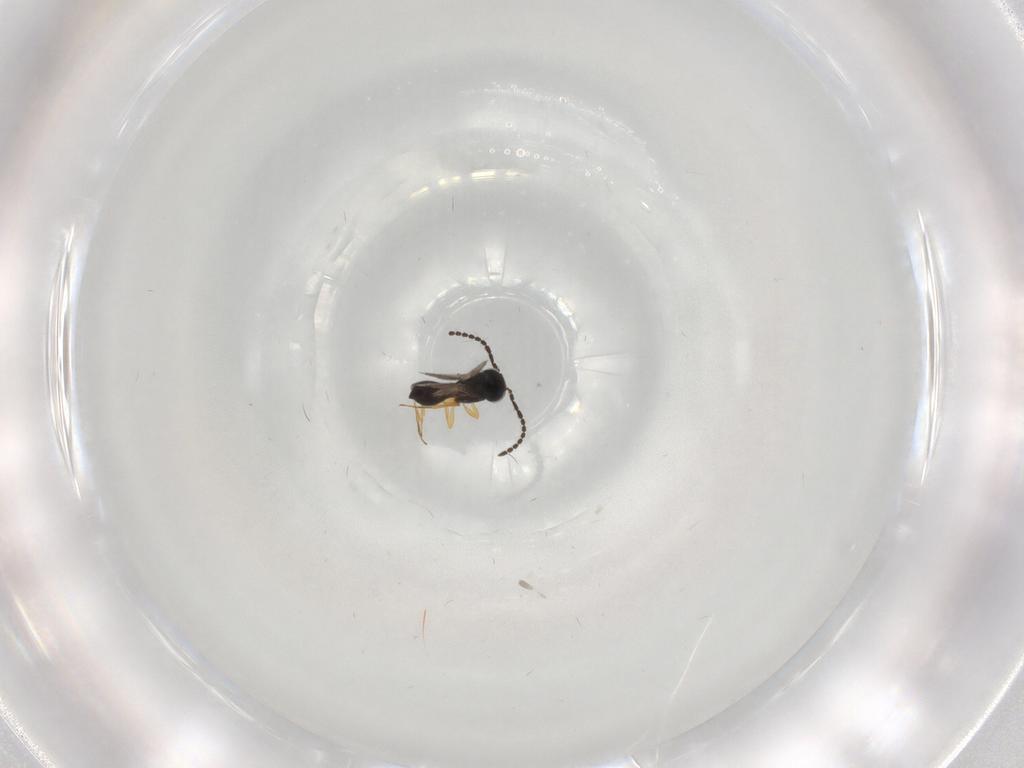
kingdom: Animalia
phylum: Arthropoda
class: Insecta
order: Hymenoptera
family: Scelionidae
